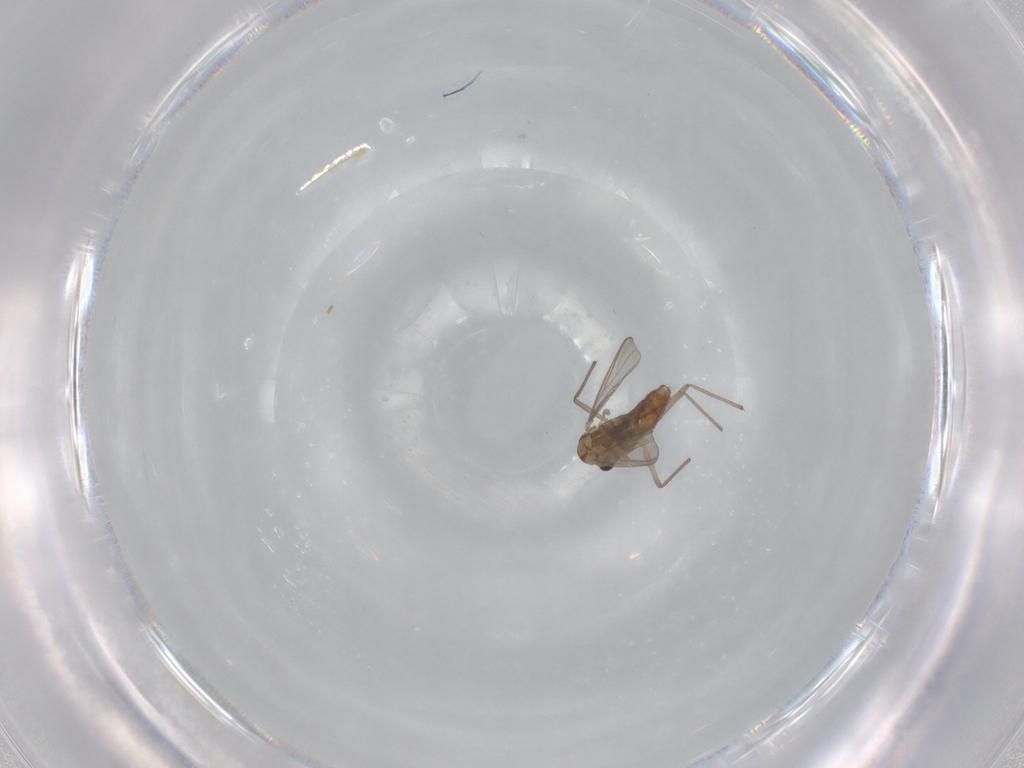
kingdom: Animalia
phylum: Arthropoda
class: Insecta
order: Diptera
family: Chironomidae
